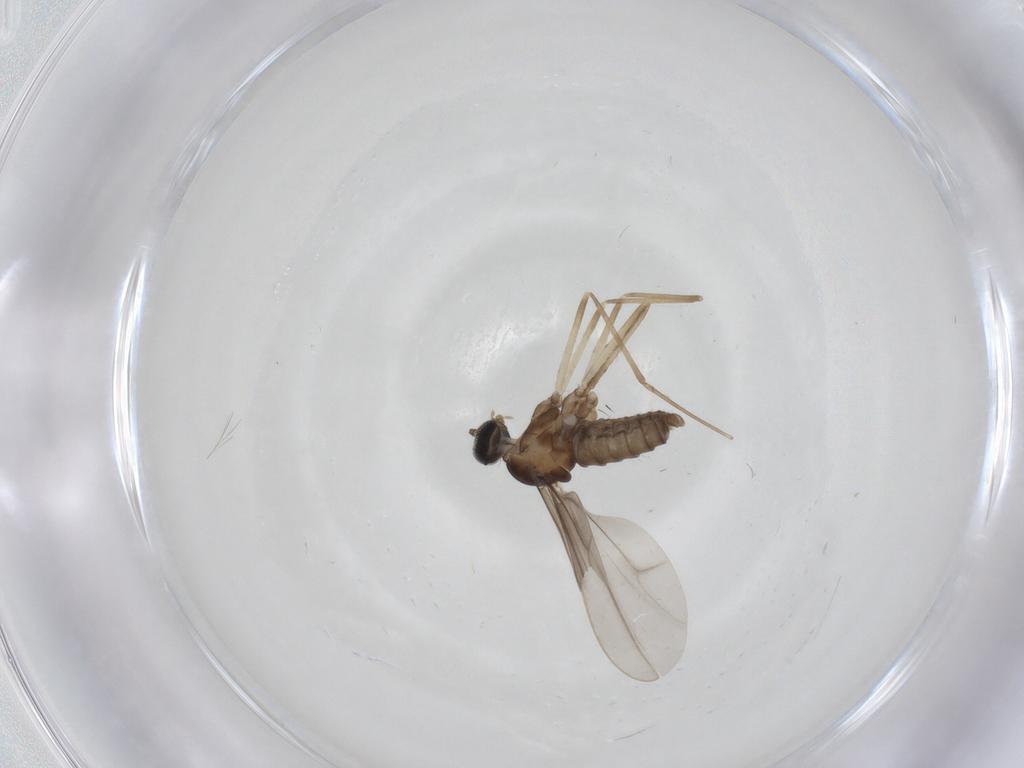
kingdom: Animalia
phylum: Arthropoda
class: Insecta
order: Diptera
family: Cecidomyiidae
